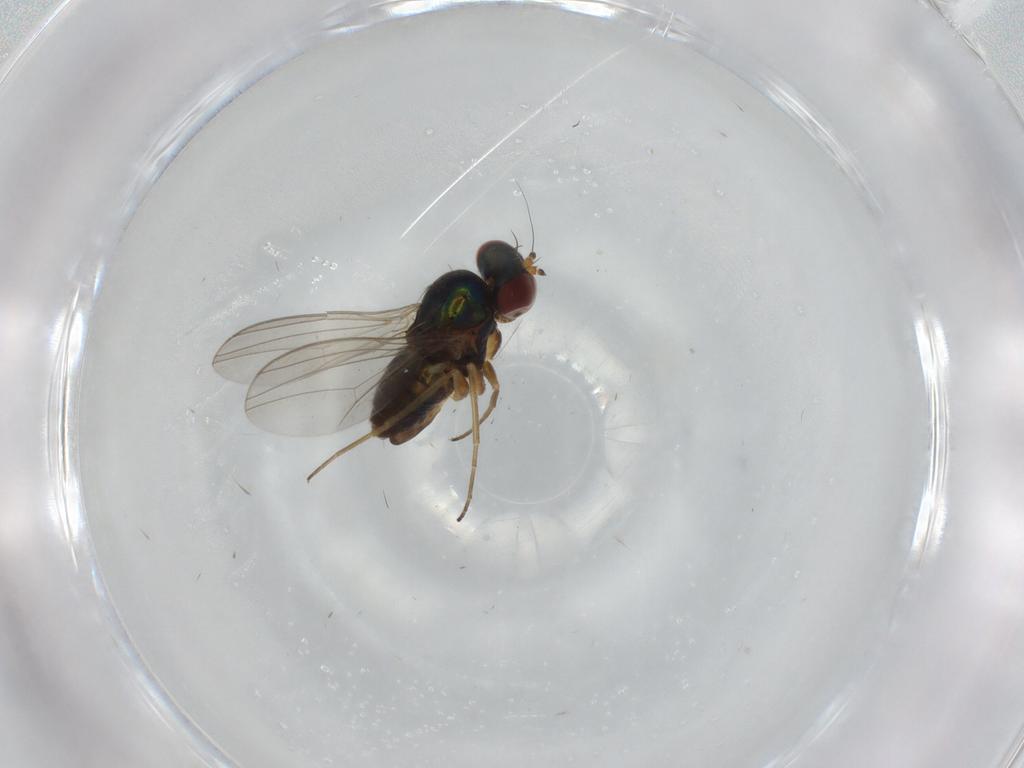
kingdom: Animalia
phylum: Arthropoda
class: Insecta
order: Diptera
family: Dolichopodidae
